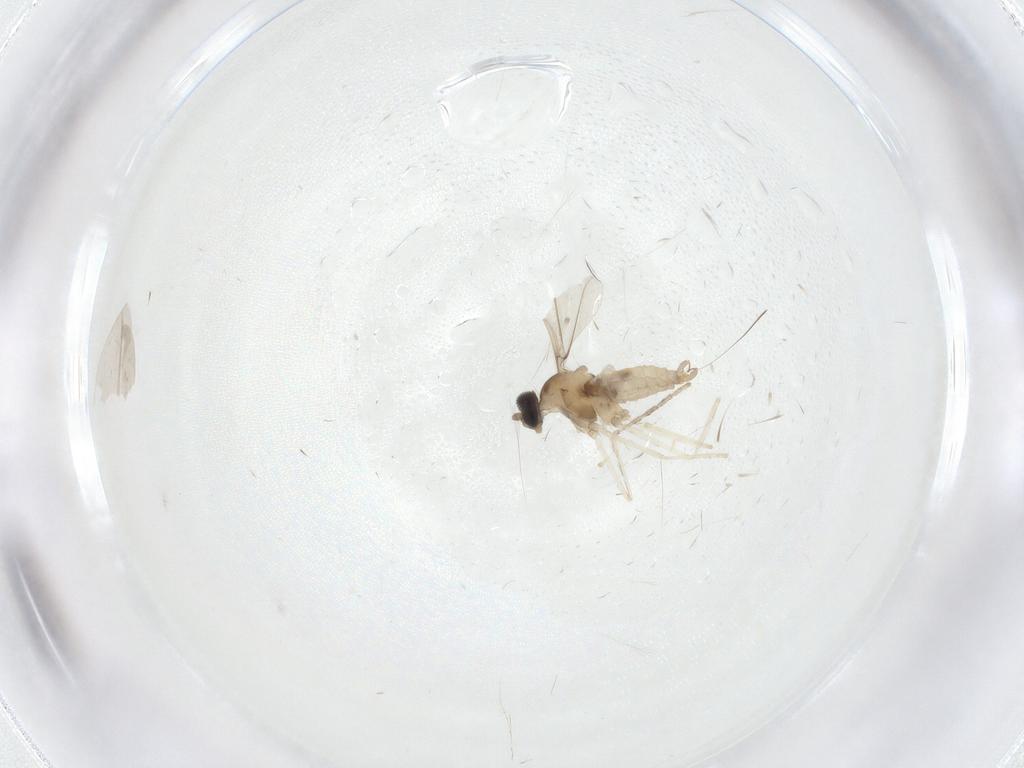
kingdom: Animalia
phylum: Arthropoda
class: Insecta
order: Diptera
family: Cecidomyiidae
